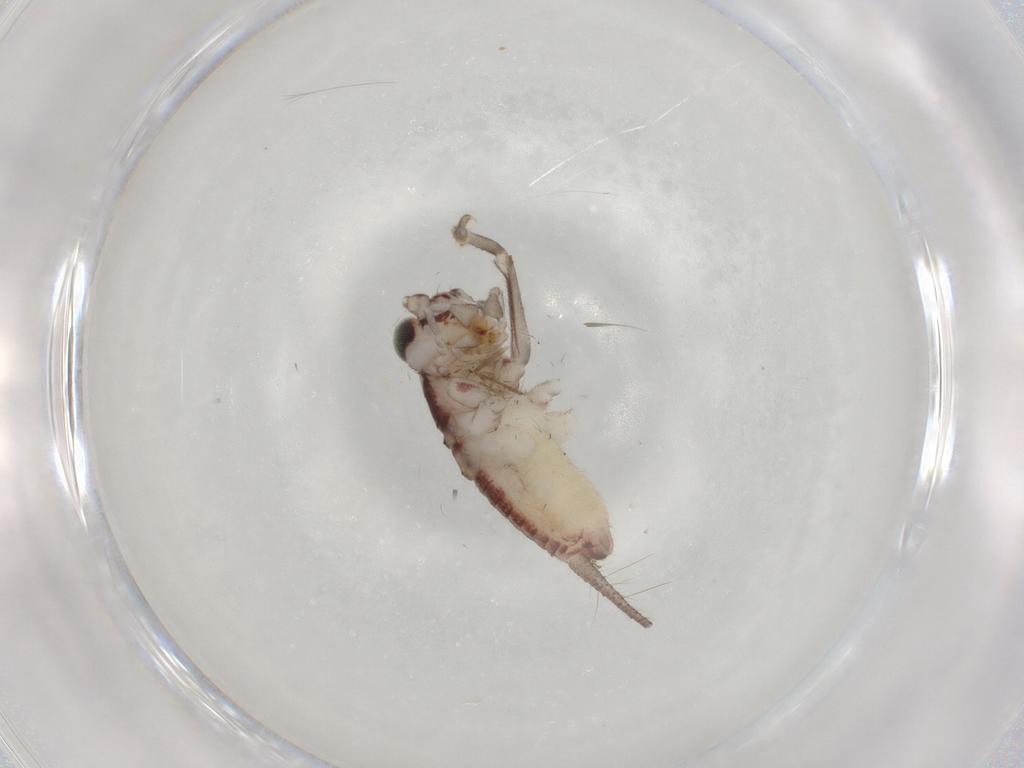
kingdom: Animalia
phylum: Arthropoda
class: Insecta
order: Orthoptera
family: Trigonidiidae
